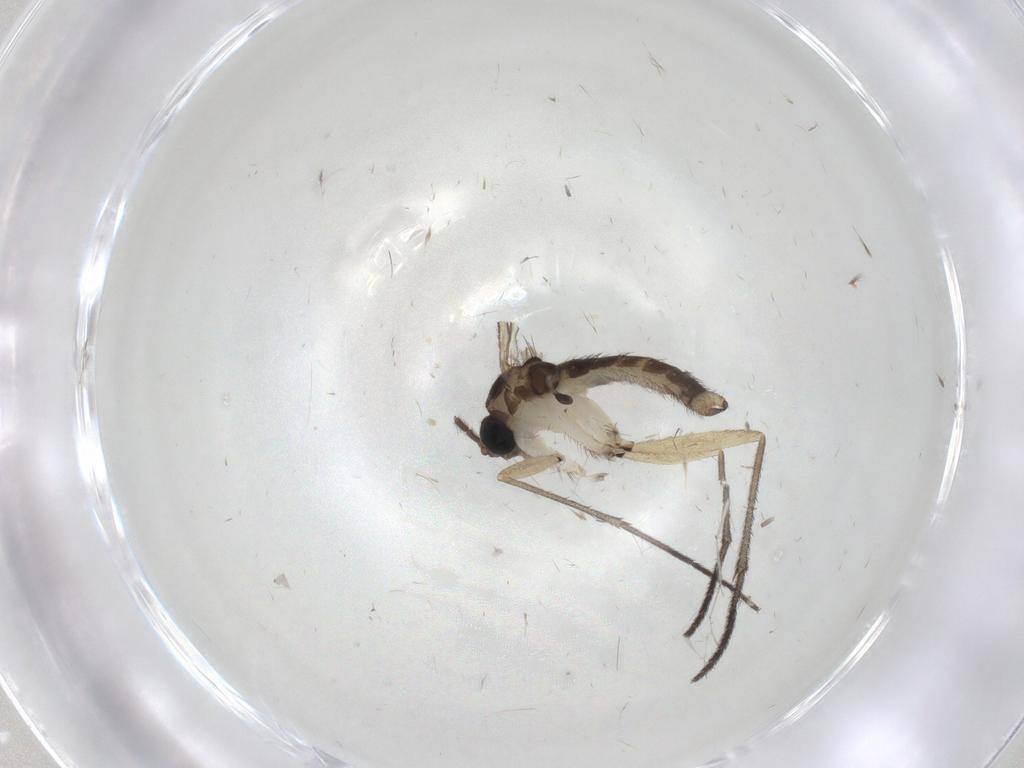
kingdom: Animalia
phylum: Arthropoda
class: Insecta
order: Diptera
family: Sciaridae
